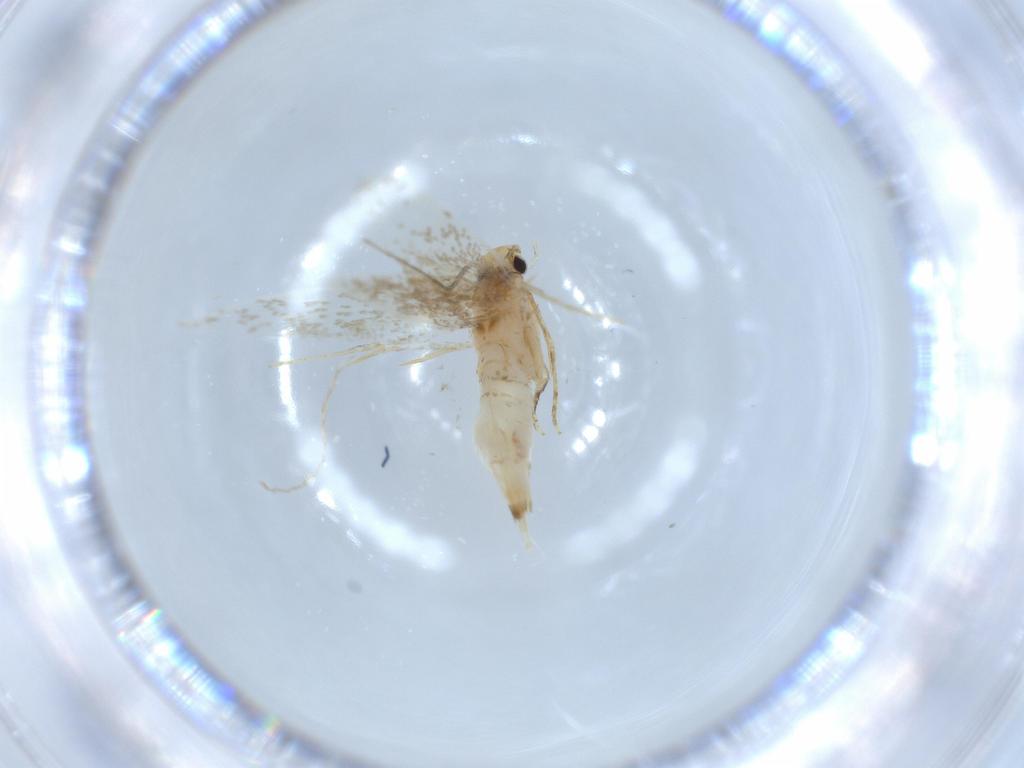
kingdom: Animalia
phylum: Arthropoda
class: Insecta
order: Lepidoptera
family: Tineidae
